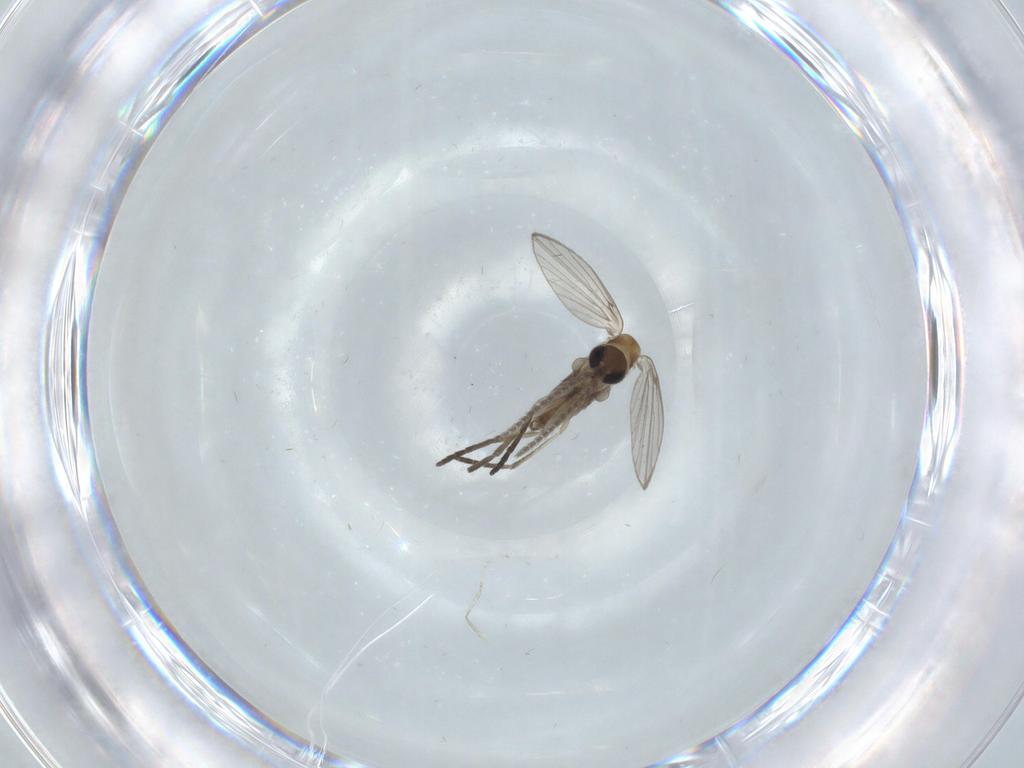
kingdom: Animalia
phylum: Arthropoda
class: Insecta
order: Diptera
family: Psychodidae
